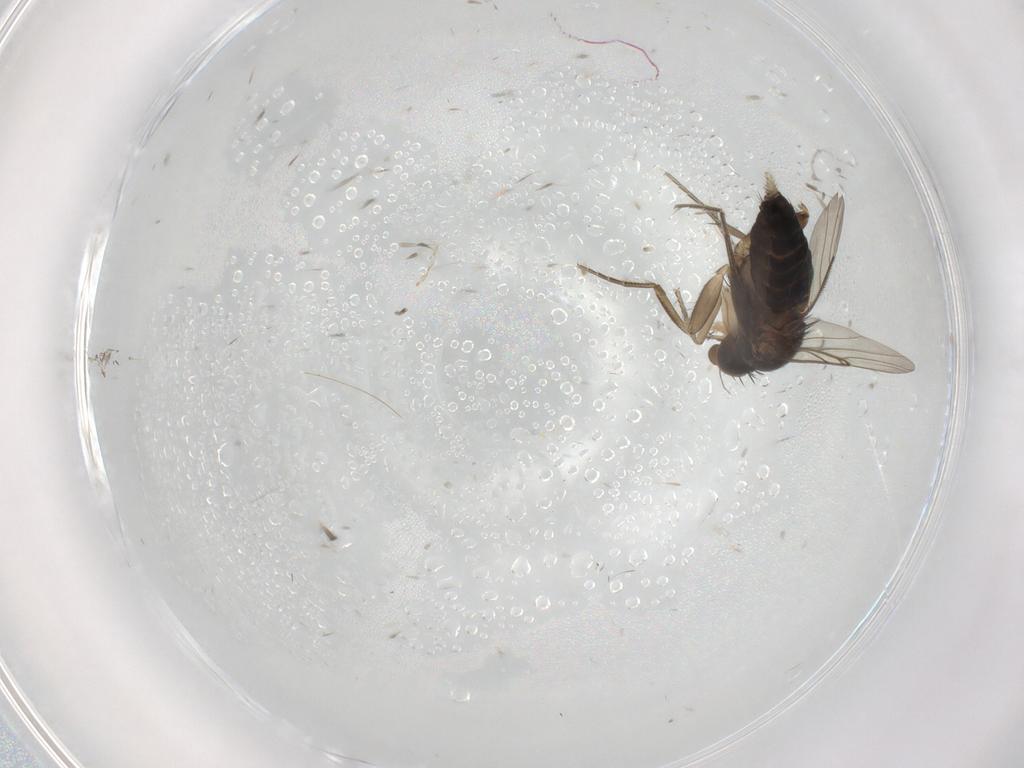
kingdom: Animalia
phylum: Arthropoda
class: Insecta
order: Diptera
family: Phoridae
